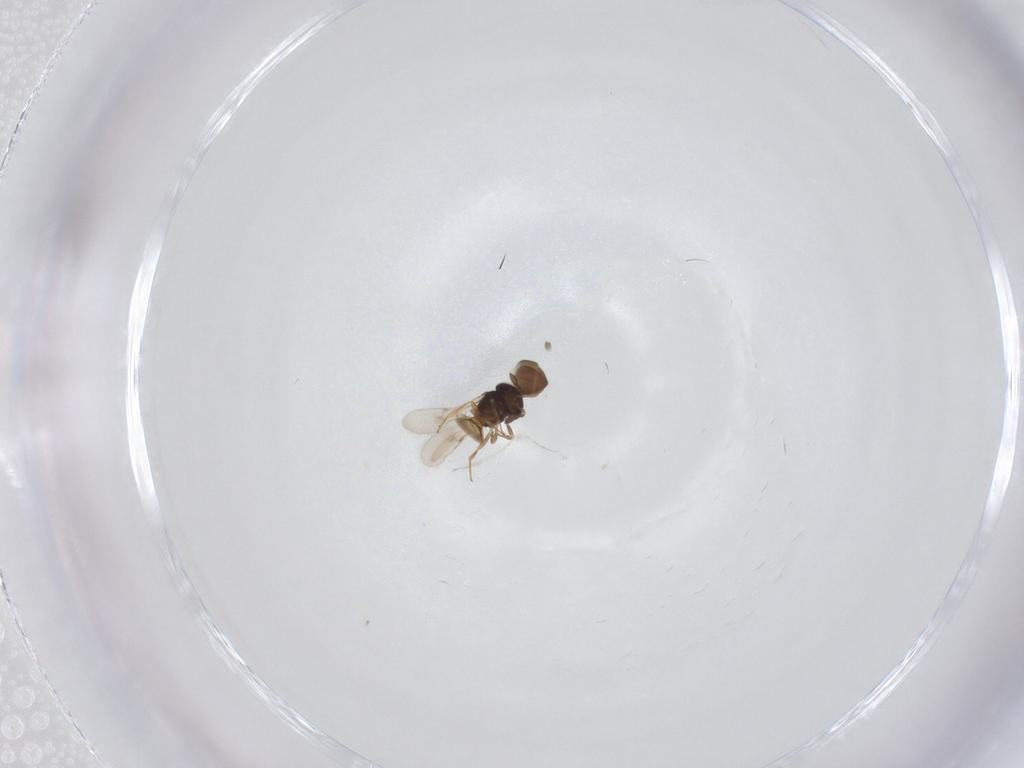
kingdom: Animalia
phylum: Arthropoda
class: Insecta
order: Hymenoptera
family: Scelionidae
